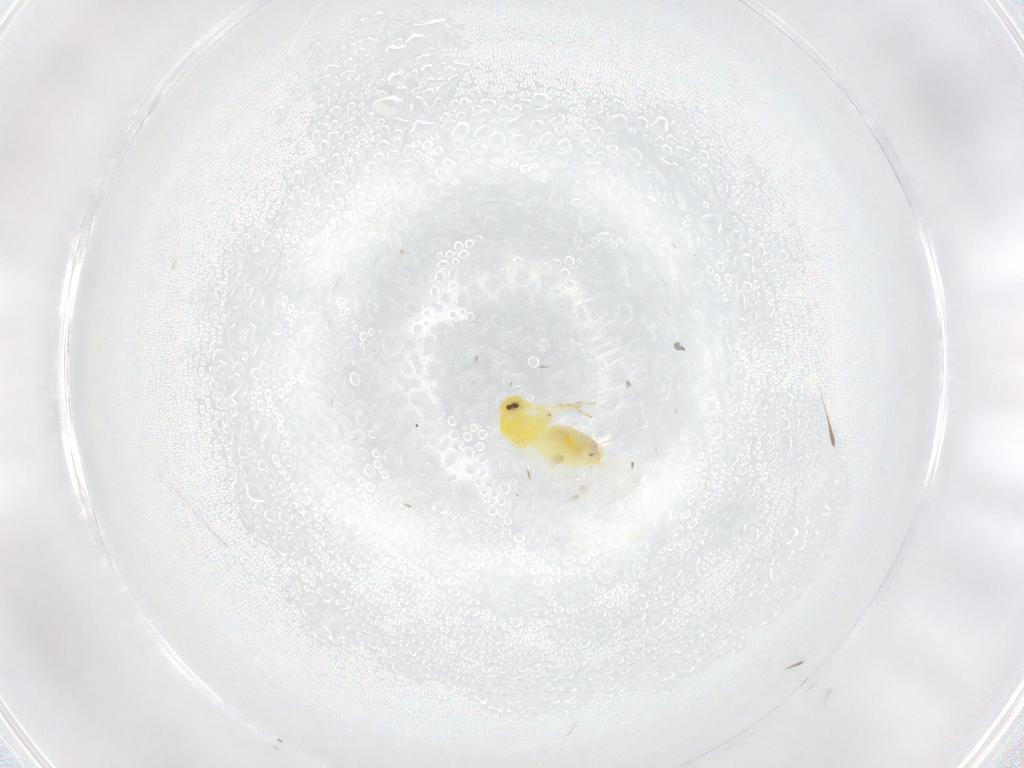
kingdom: Animalia
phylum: Arthropoda
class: Insecta
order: Hemiptera
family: Aleyrodidae
